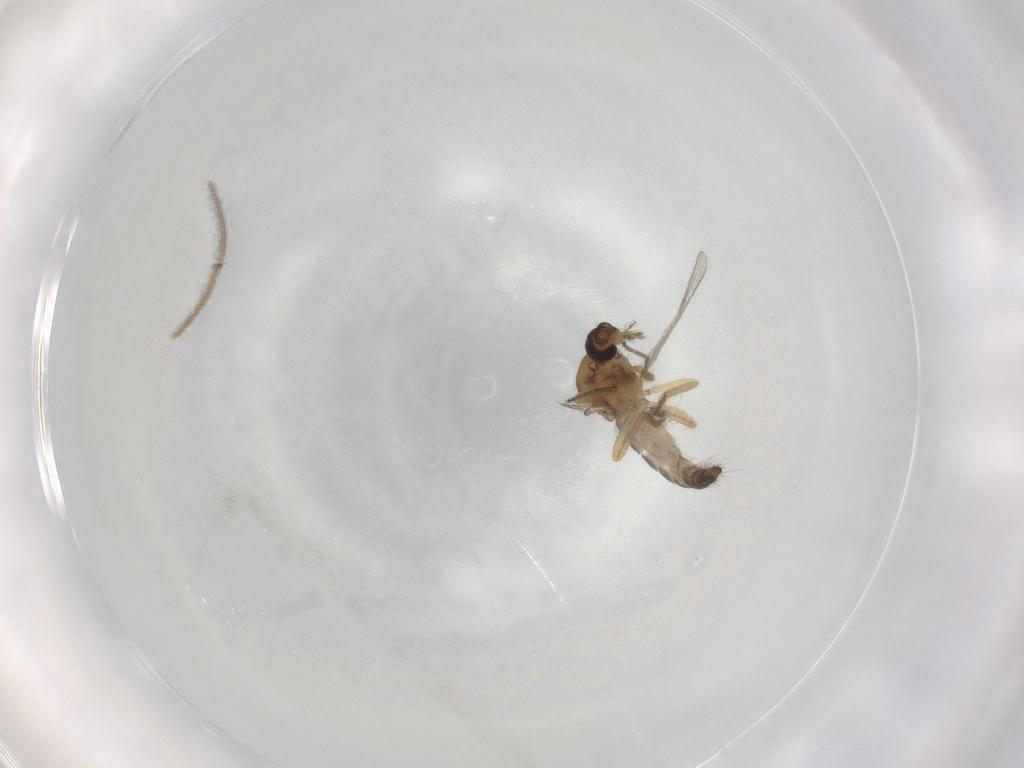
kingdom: Animalia
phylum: Arthropoda
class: Insecta
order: Diptera
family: Ceratopogonidae
